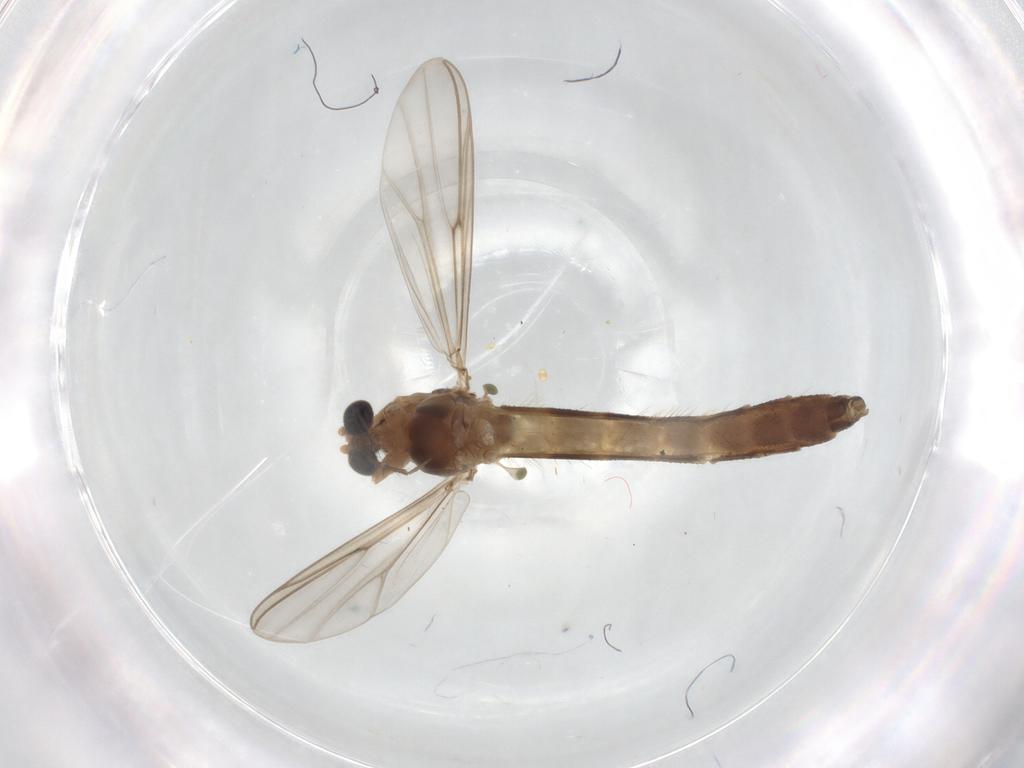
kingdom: Animalia
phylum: Arthropoda
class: Insecta
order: Diptera
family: Chironomidae
